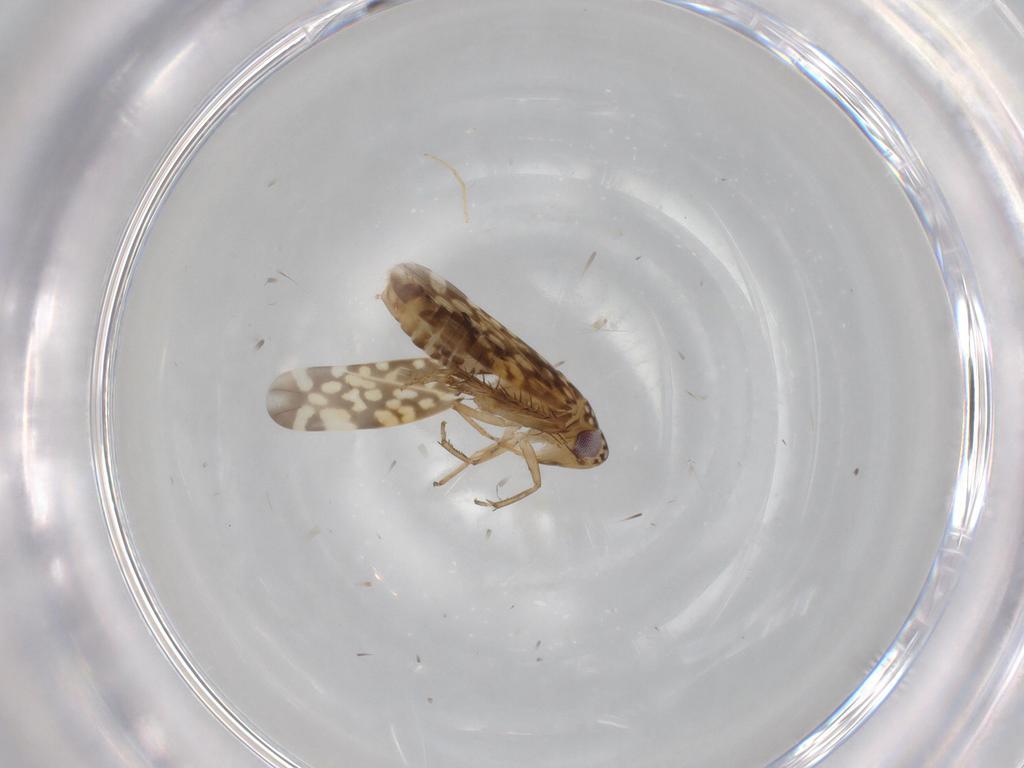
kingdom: Animalia
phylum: Arthropoda
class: Insecta
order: Hemiptera
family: Cicadellidae
